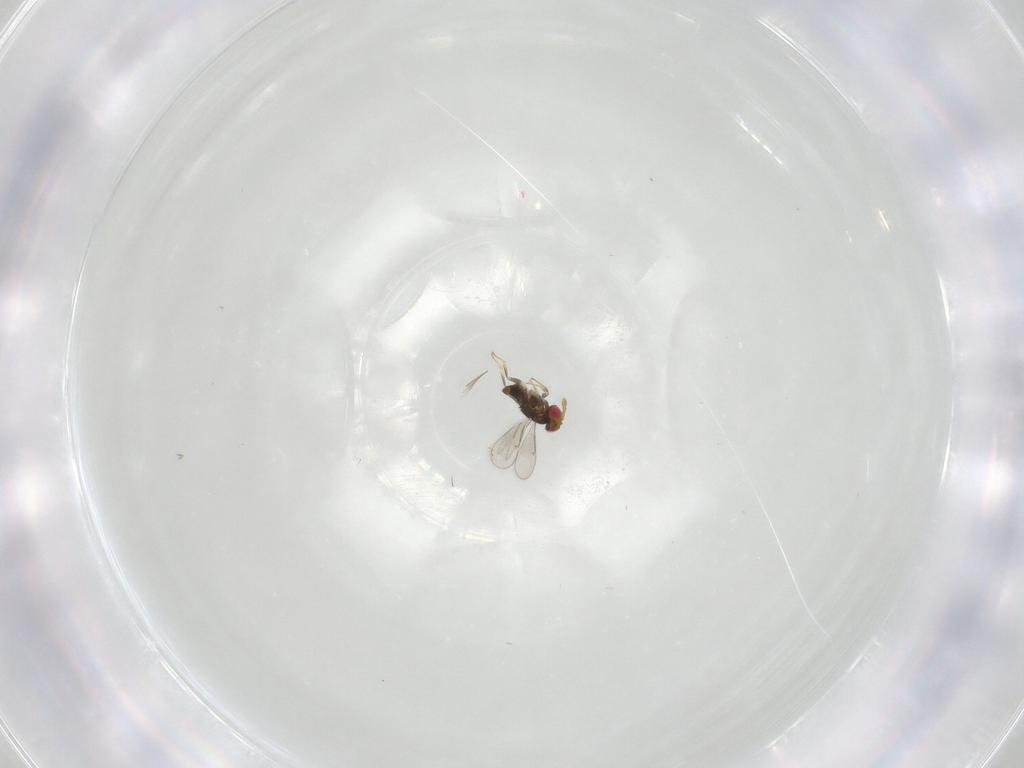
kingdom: Animalia
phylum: Arthropoda
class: Insecta
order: Hymenoptera
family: Aphelinidae
